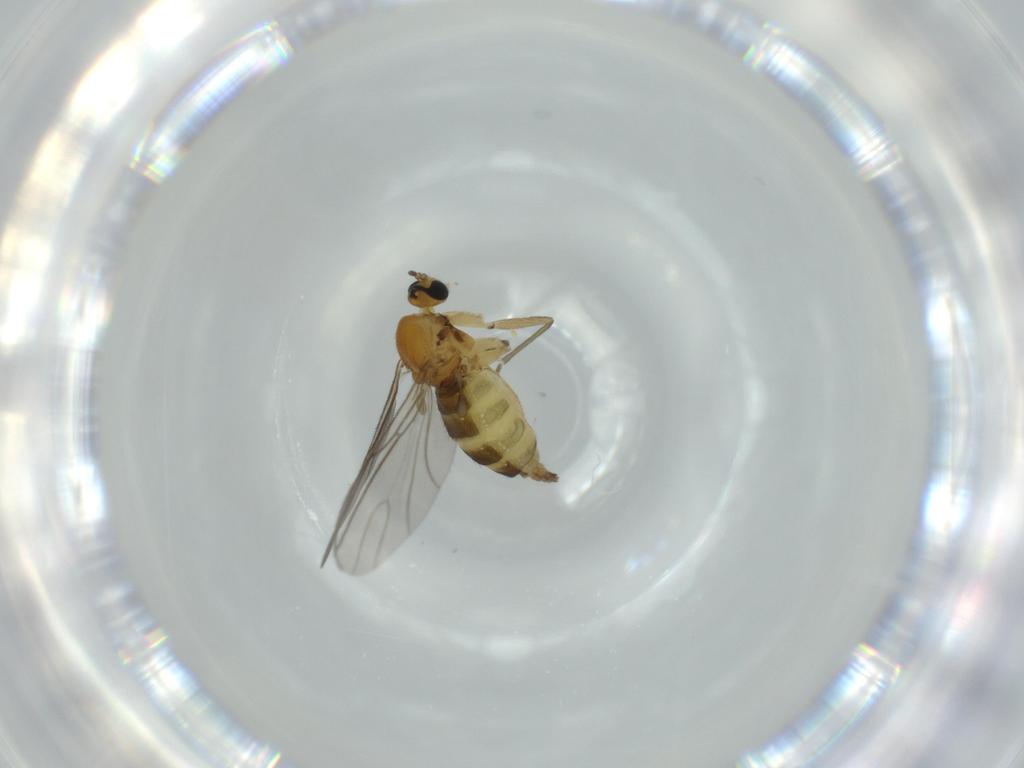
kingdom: Animalia
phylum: Arthropoda
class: Insecta
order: Diptera
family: Sciaridae
